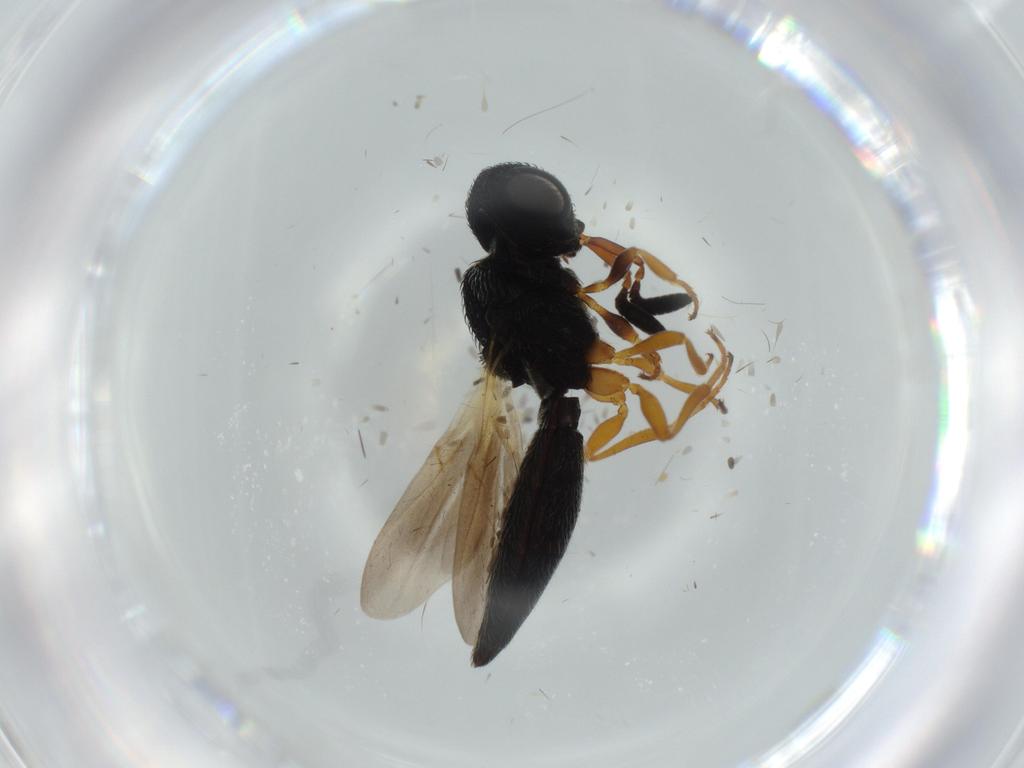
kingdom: Animalia
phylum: Arthropoda
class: Insecta
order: Hymenoptera
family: Scelionidae
